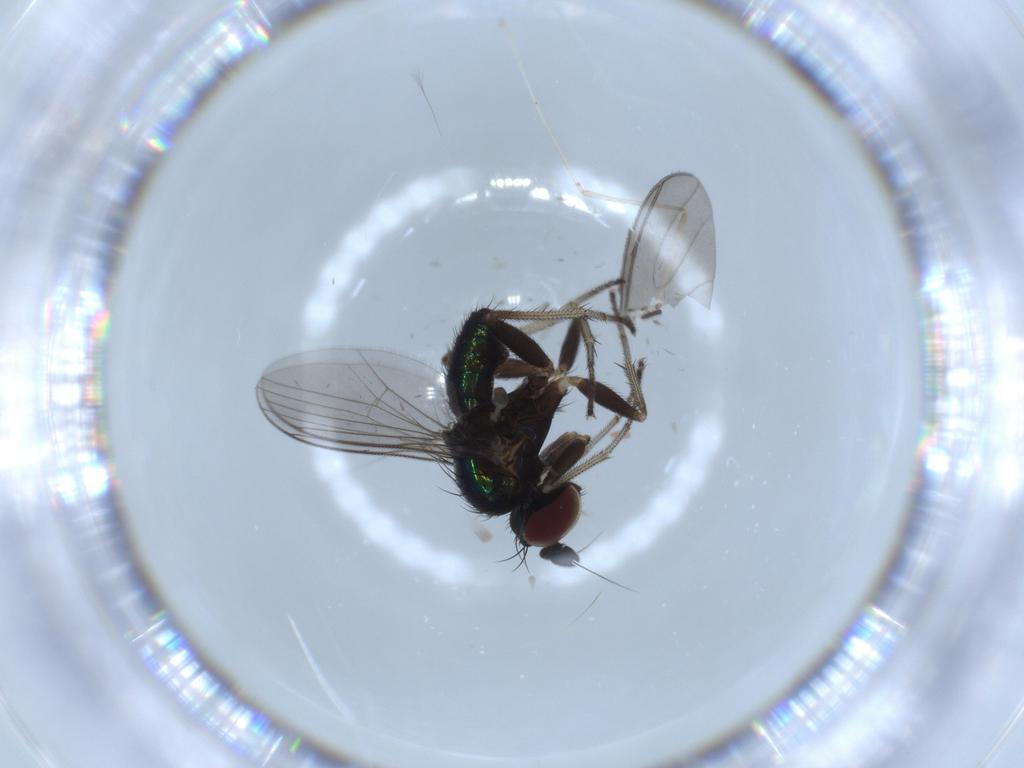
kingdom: Animalia
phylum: Arthropoda
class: Insecta
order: Diptera
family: Dolichopodidae
